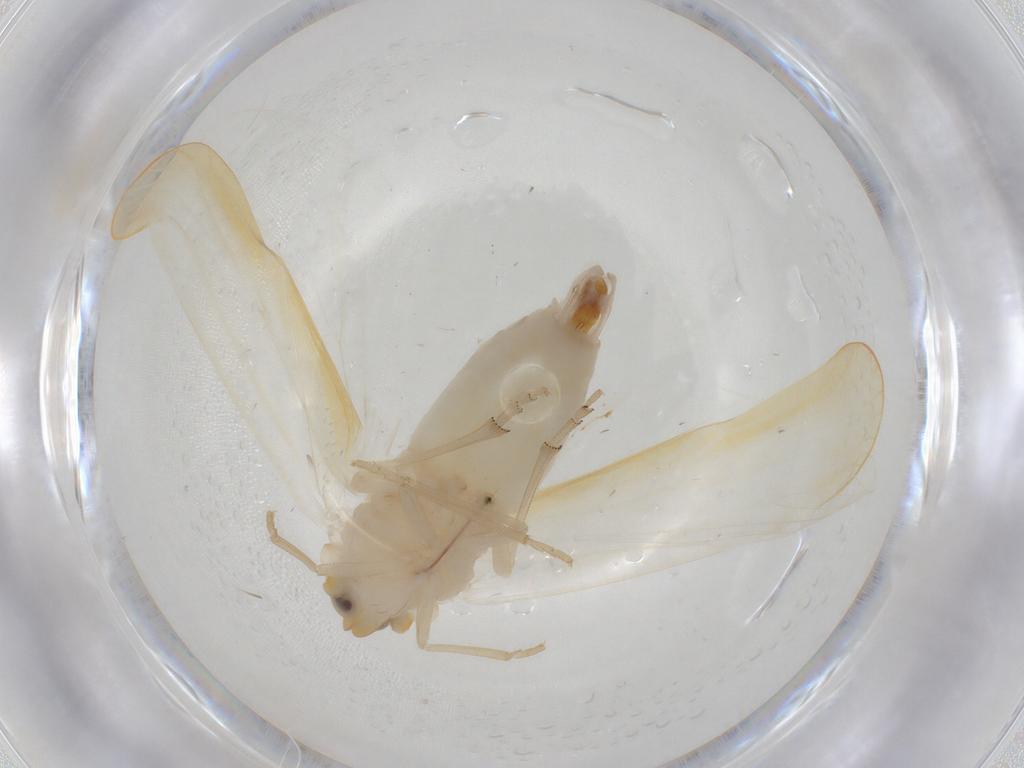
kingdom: Animalia
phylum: Arthropoda
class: Insecta
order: Hemiptera
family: Derbidae
